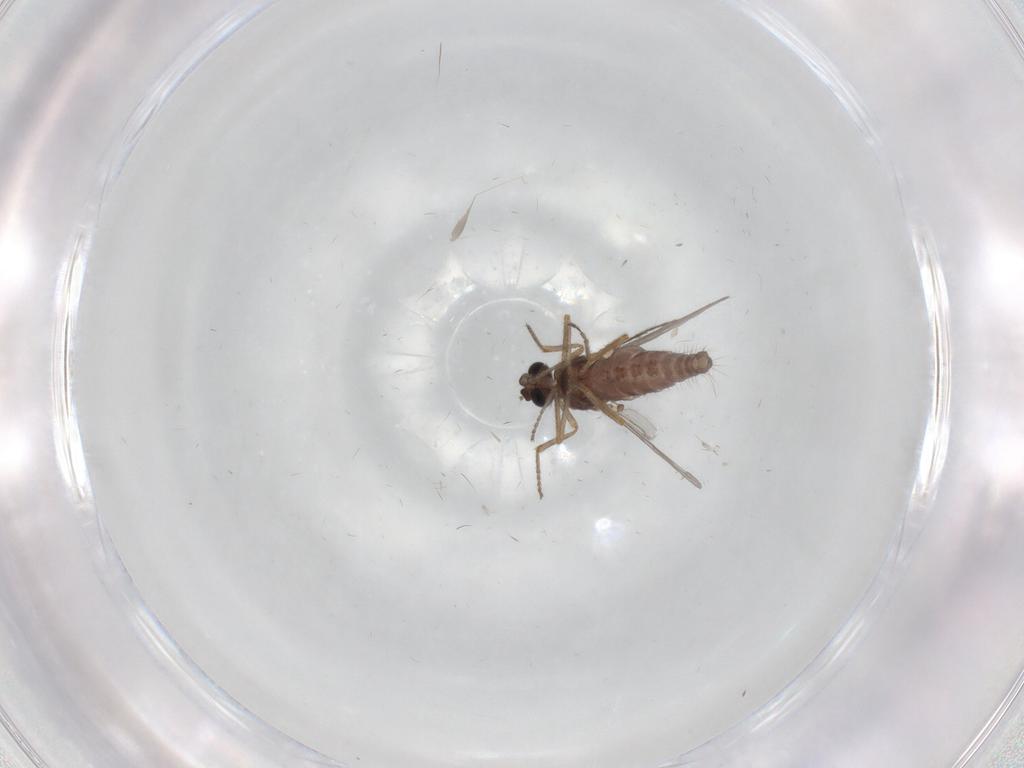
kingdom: Animalia
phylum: Arthropoda
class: Insecta
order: Diptera
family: Ceratopogonidae
